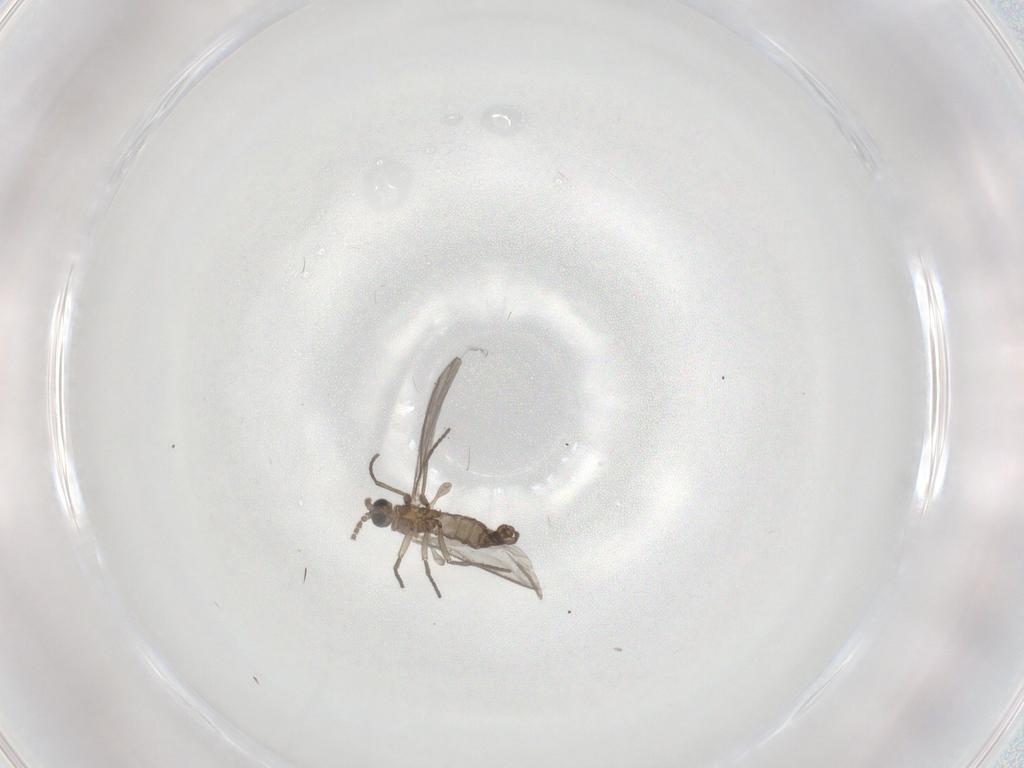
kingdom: Animalia
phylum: Arthropoda
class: Insecta
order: Diptera
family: Sciaridae
